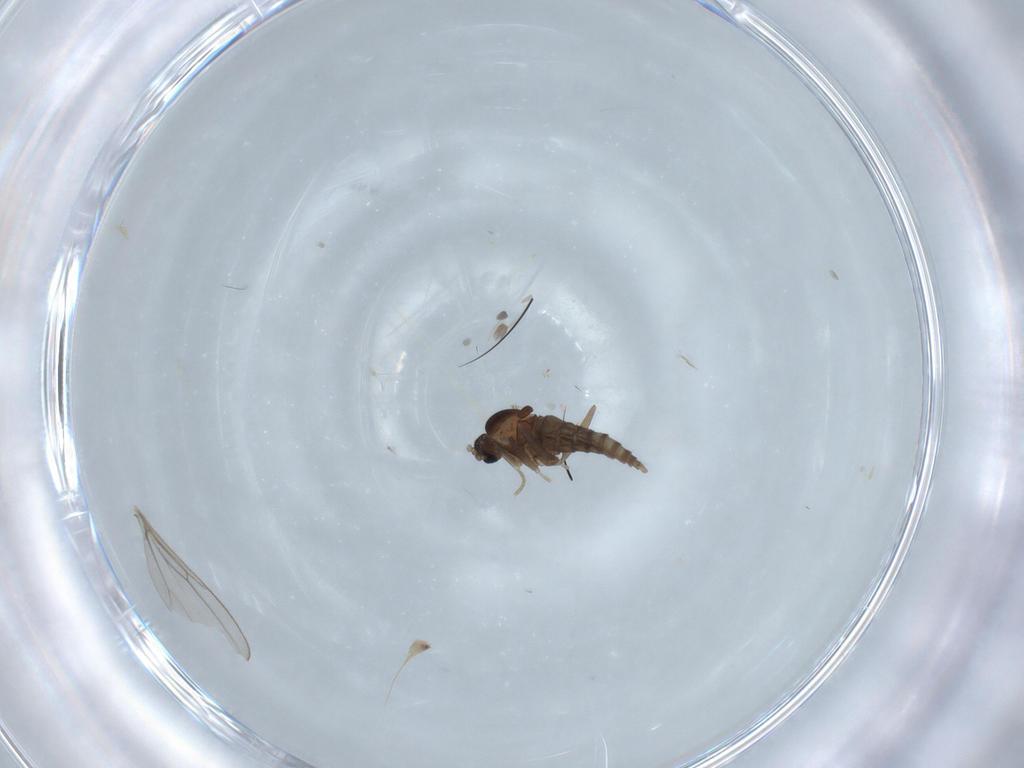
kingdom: Animalia
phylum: Arthropoda
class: Insecta
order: Diptera
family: Cecidomyiidae
